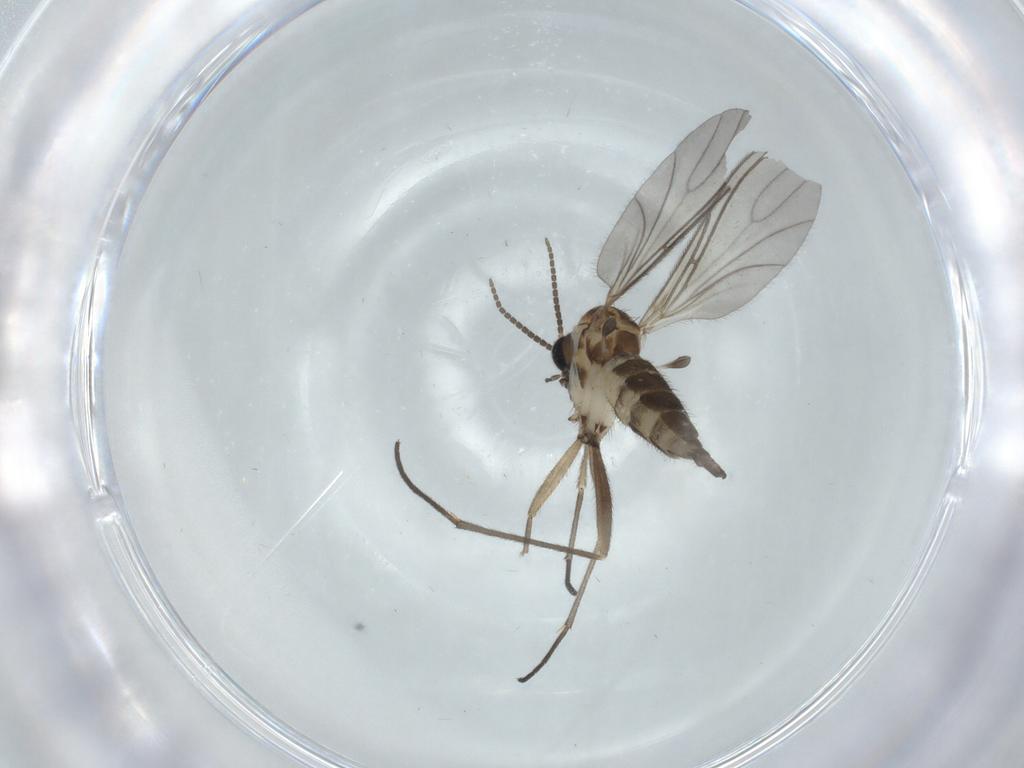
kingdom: Animalia
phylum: Arthropoda
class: Insecta
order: Diptera
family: Sciaridae
